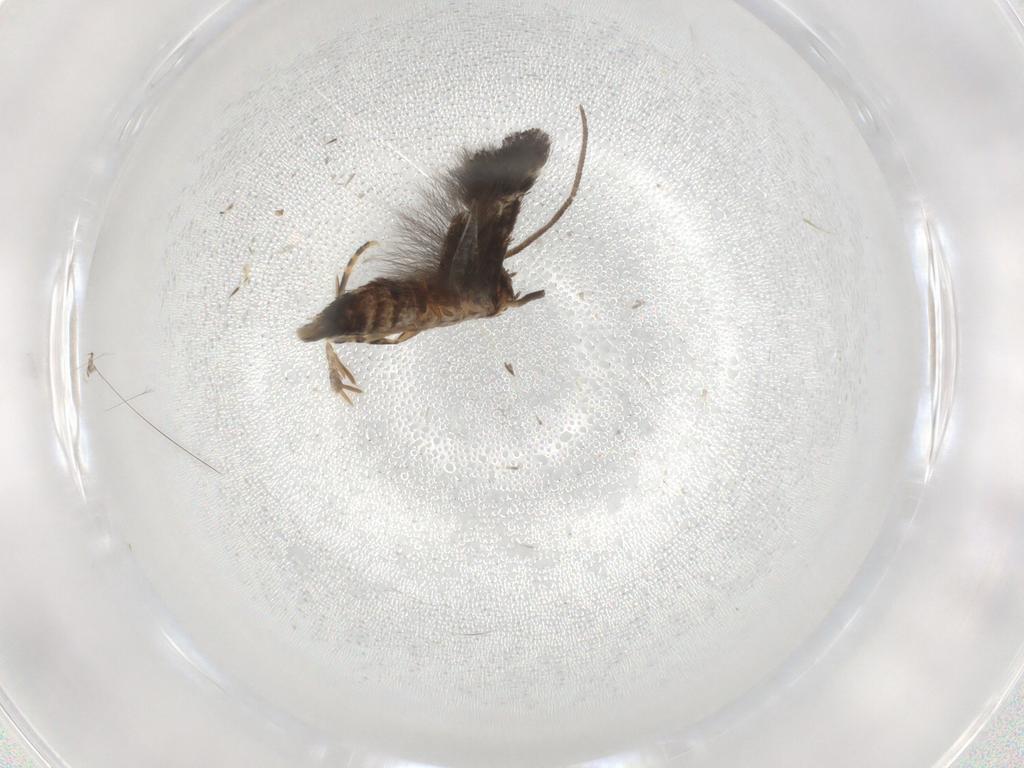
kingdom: Animalia
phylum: Arthropoda
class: Insecta
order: Lepidoptera
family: Elachistidae
